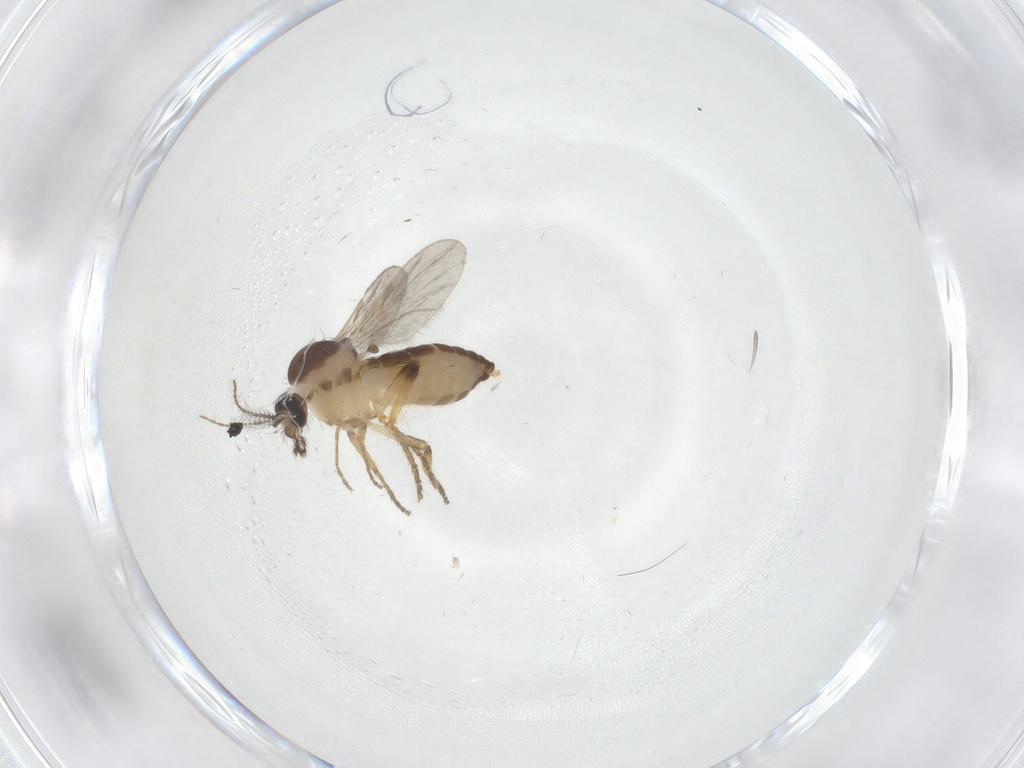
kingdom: Animalia
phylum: Arthropoda
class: Insecta
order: Diptera
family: Ceratopogonidae
